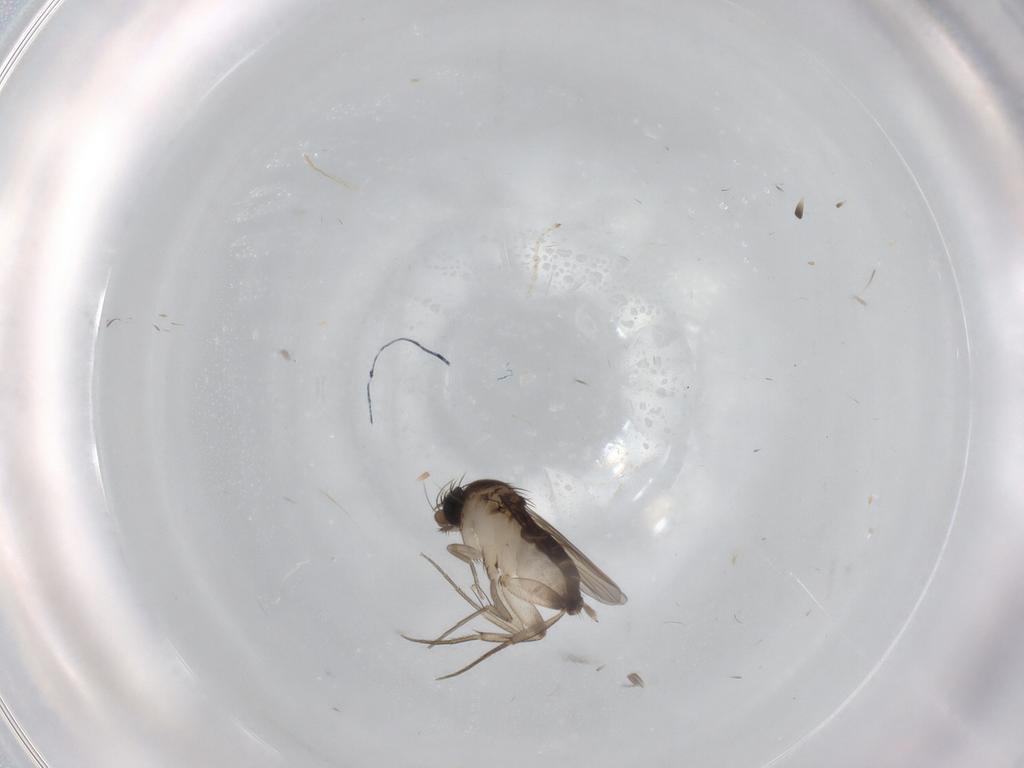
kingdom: Animalia
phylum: Arthropoda
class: Insecta
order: Diptera
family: Phoridae
